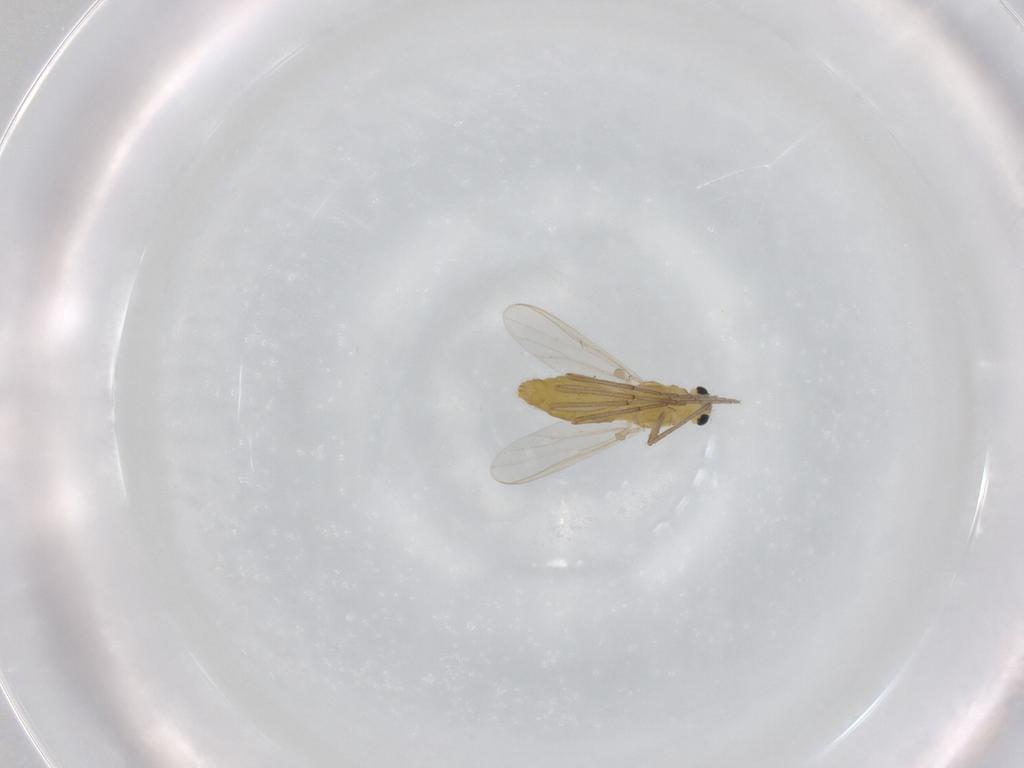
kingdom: Animalia
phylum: Arthropoda
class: Insecta
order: Diptera
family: Chironomidae
